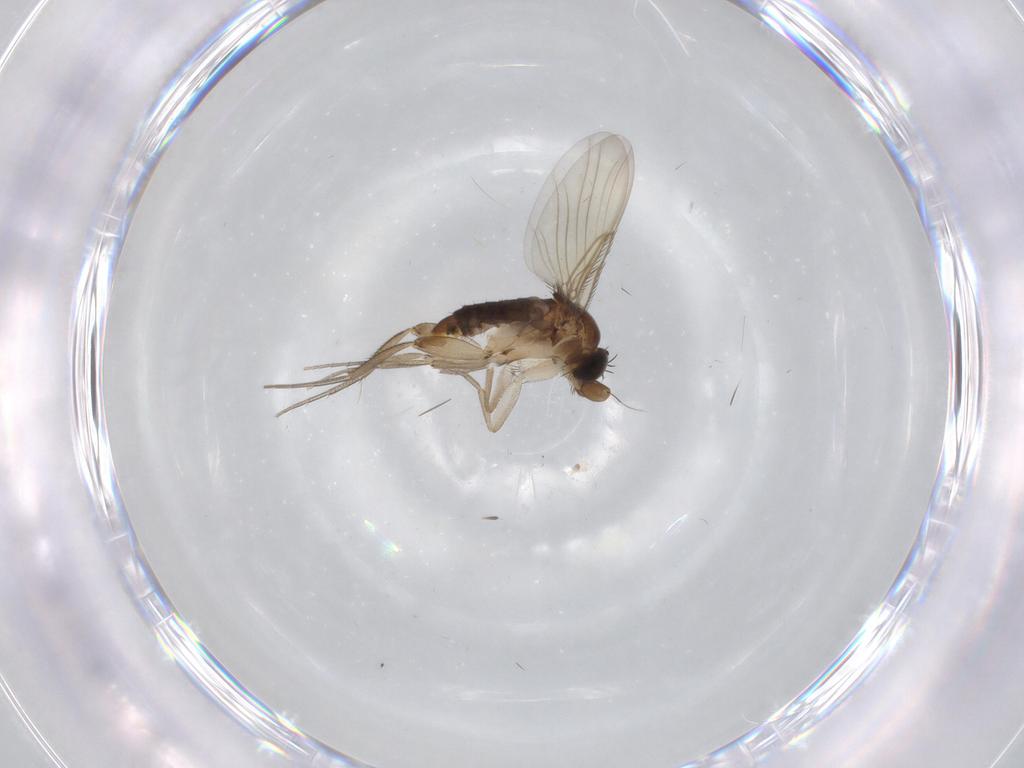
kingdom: Animalia
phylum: Arthropoda
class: Insecta
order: Diptera
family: Phoridae
